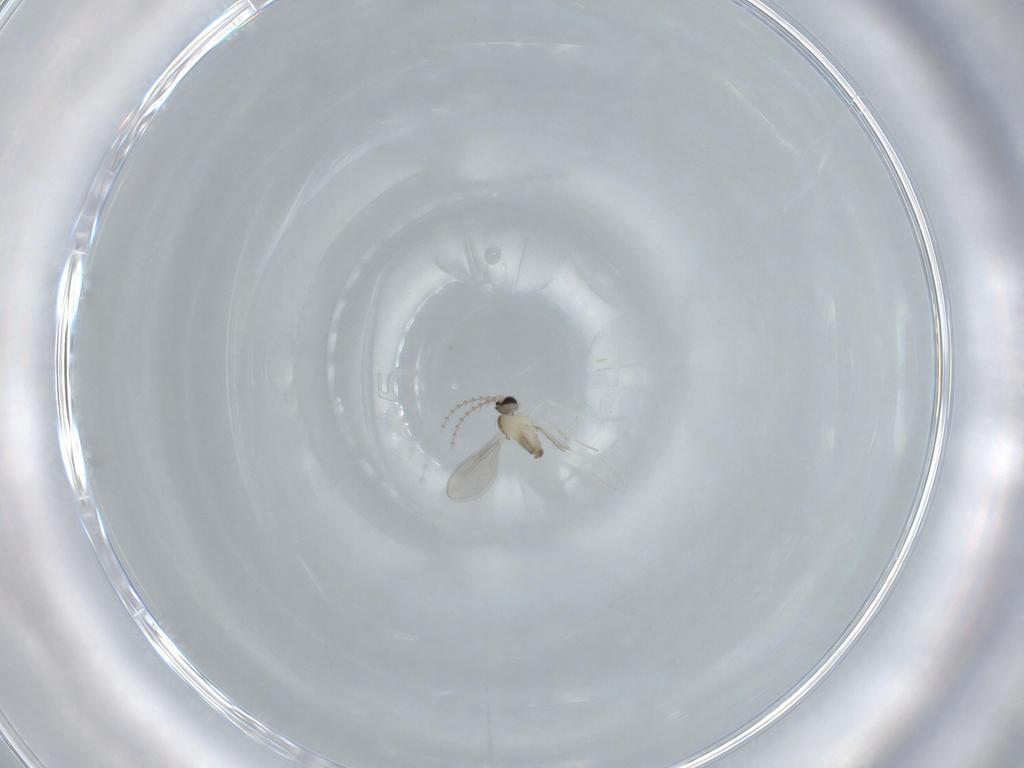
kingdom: Animalia
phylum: Arthropoda
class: Insecta
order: Diptera
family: Cecidomyiidae
